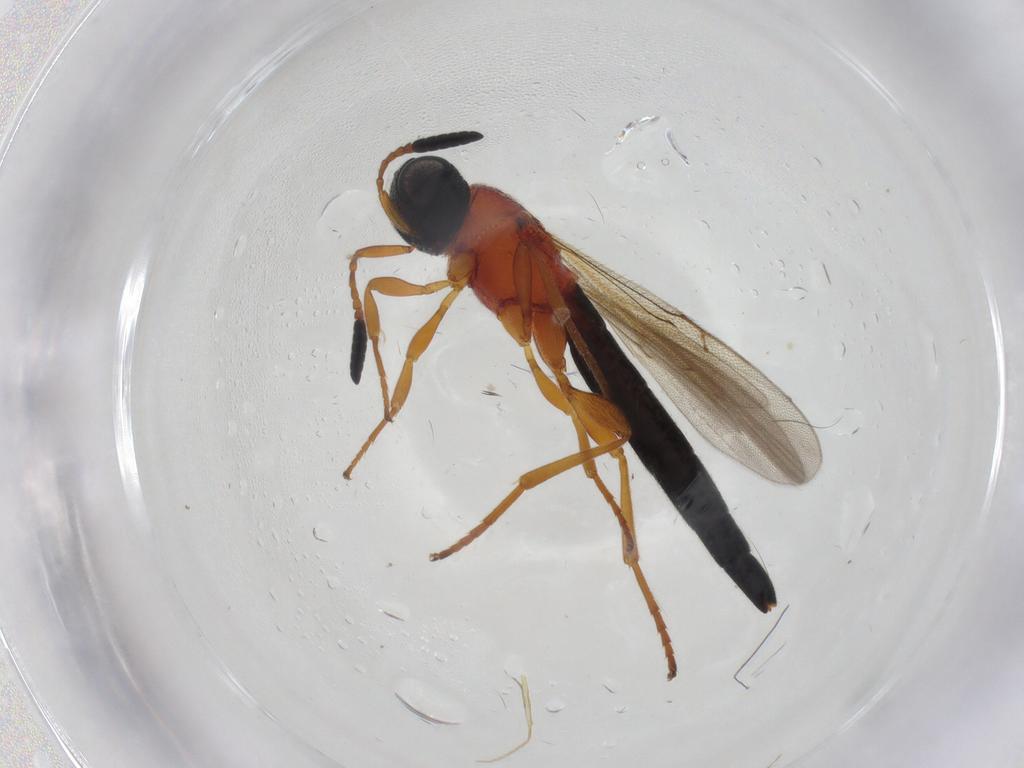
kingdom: Animalia
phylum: Arthropoda
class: Insecta
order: Hymenoptera
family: Scelionidae
